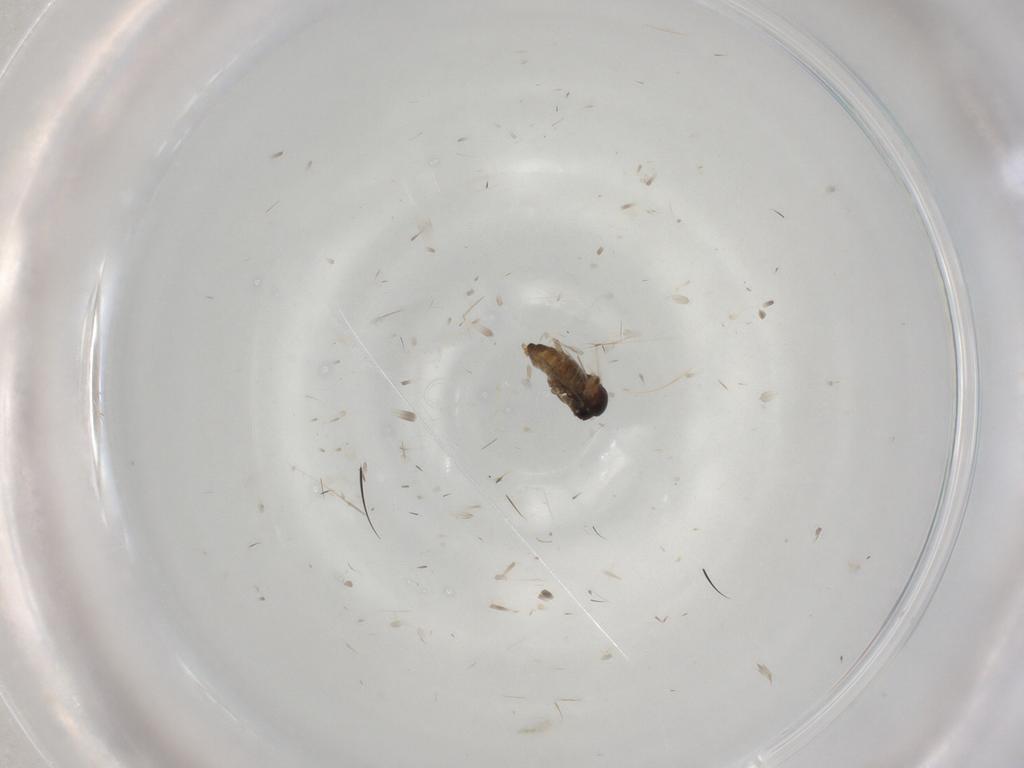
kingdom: Animalia
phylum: Arthropoda
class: Insecta
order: Diptera
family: Cecidomyiidae
